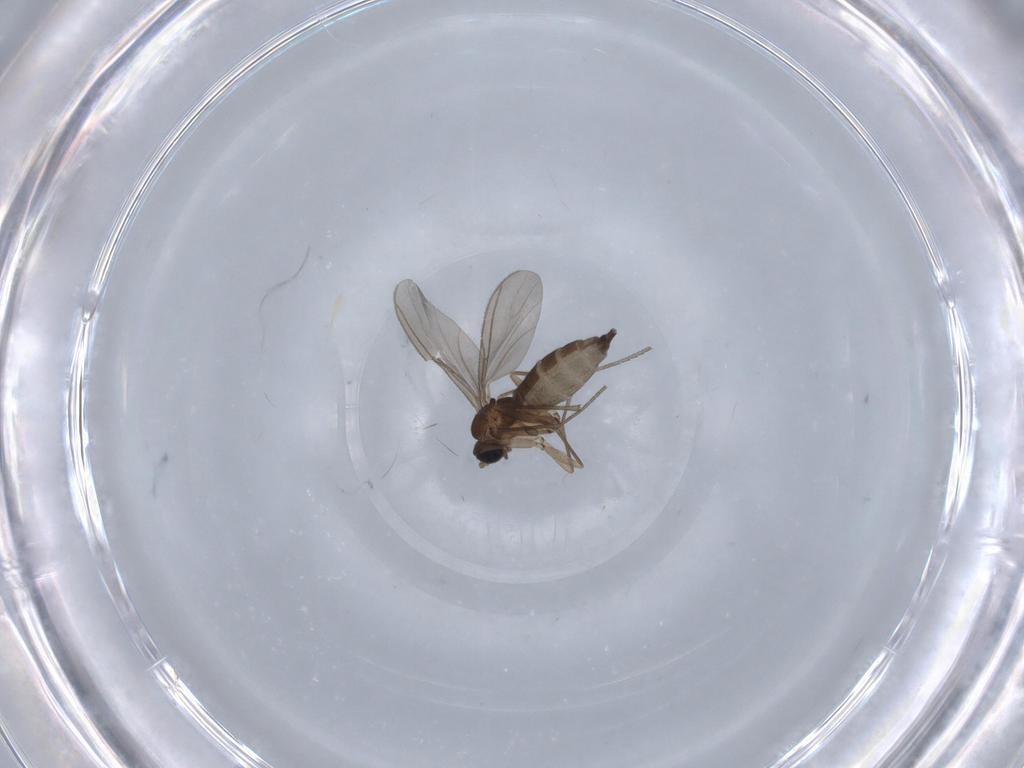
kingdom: Animalia
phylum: Arthropoda
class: Insecta
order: Diptera
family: Sciaridae
